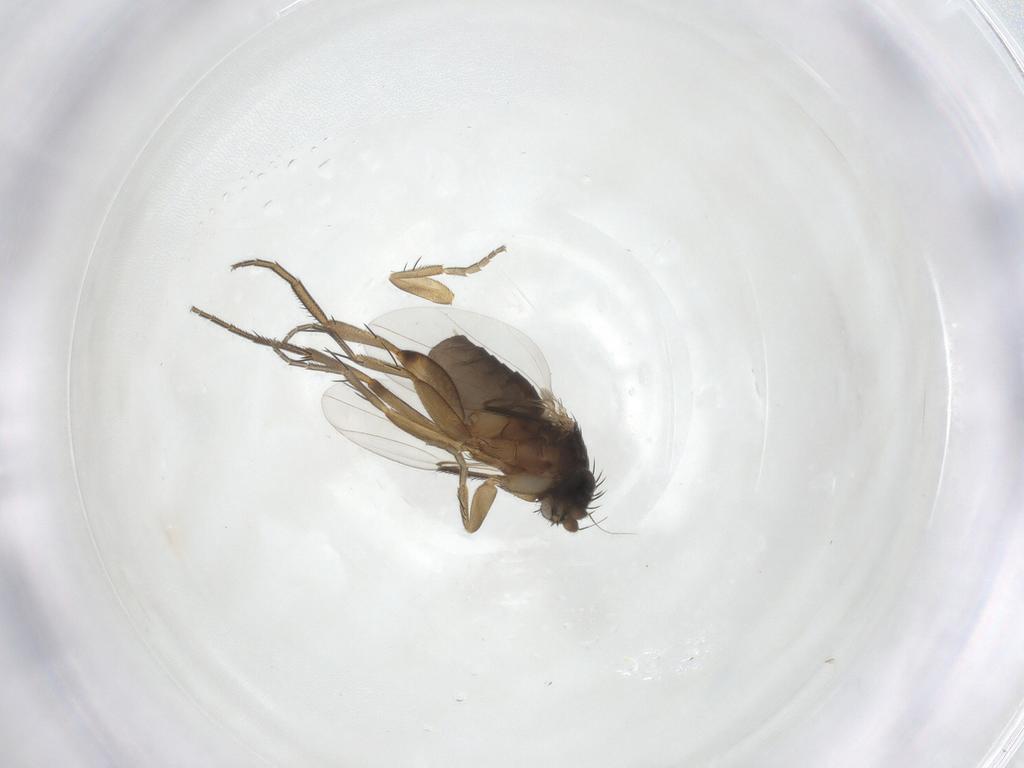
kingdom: Animalia
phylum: Arthropoda
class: Insecta
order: Diptera
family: Phoridae
